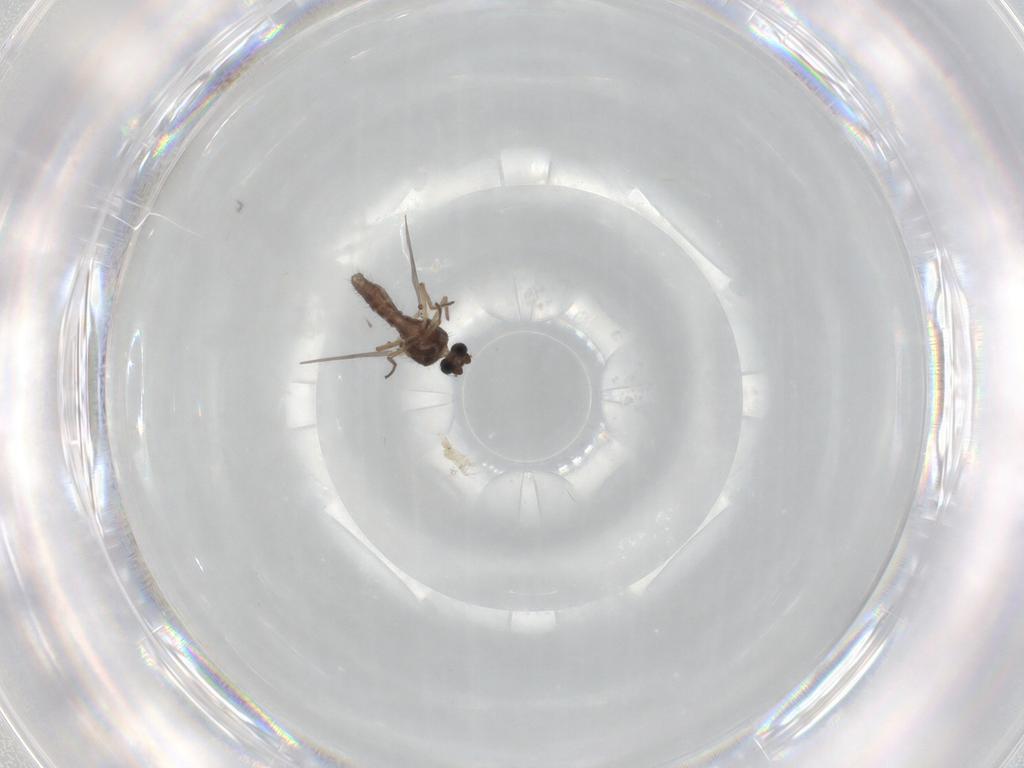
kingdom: Animalia
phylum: Arthropoda
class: Insecta
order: Diptera
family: Ceratopogonidae
